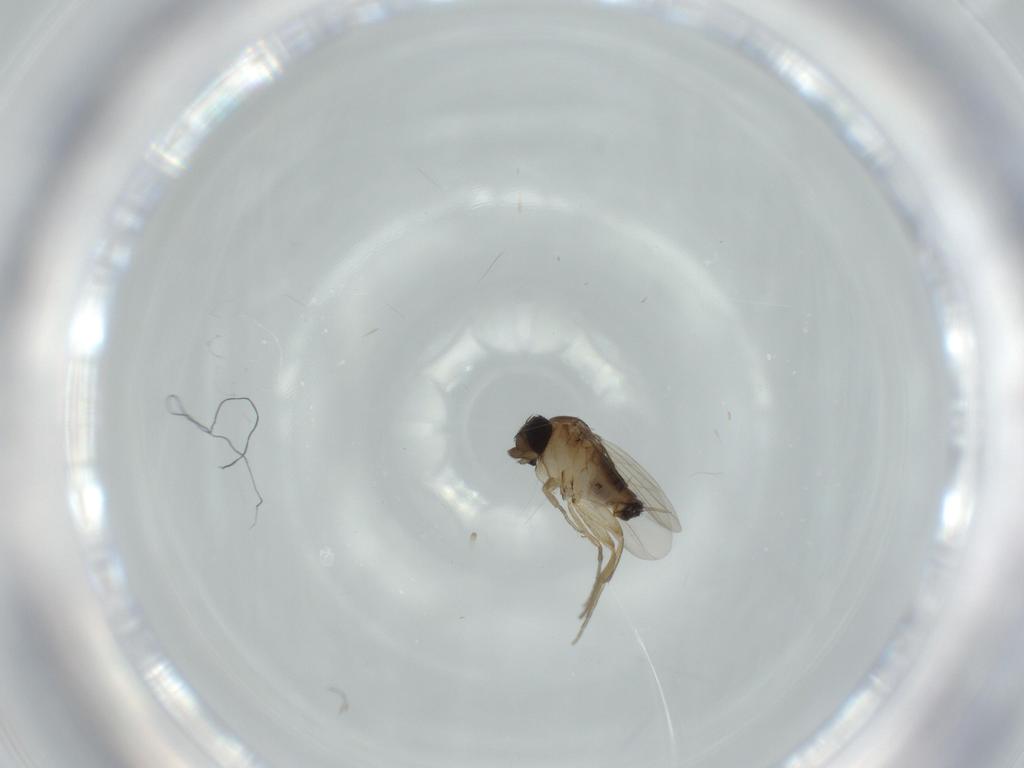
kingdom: Animalia
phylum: Arthropoda
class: Insecta
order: Diptera
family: Phoridae
